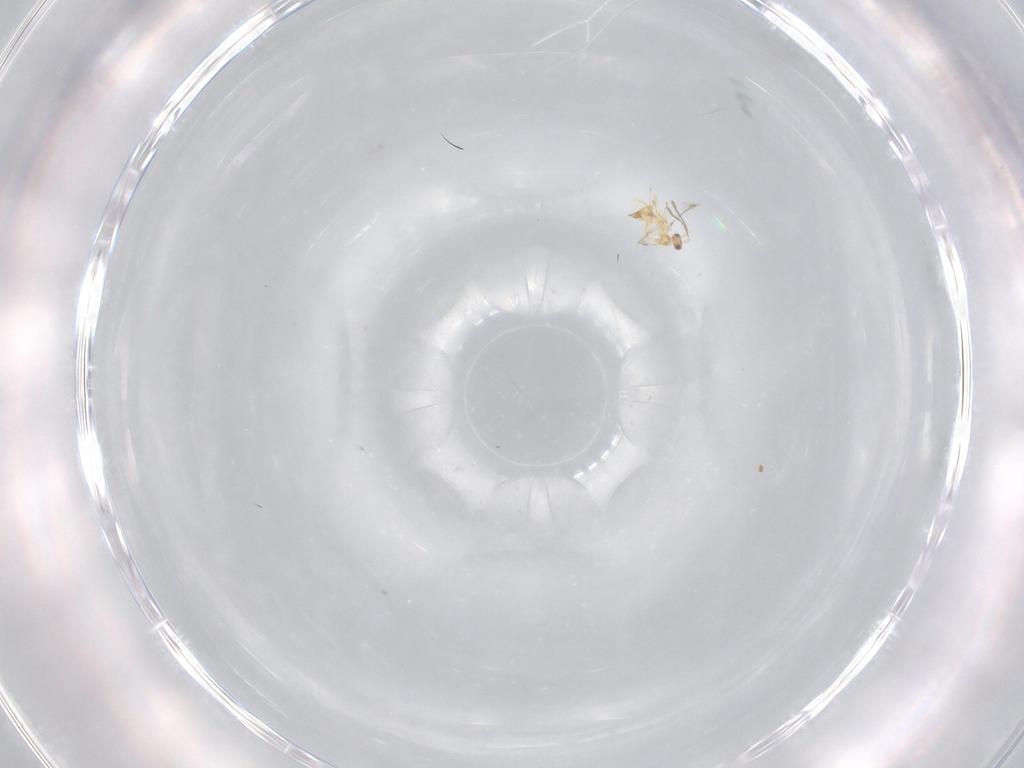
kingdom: Animalia
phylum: Arthropoda
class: Insecta
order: Hymenoptera
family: Mymaridae
